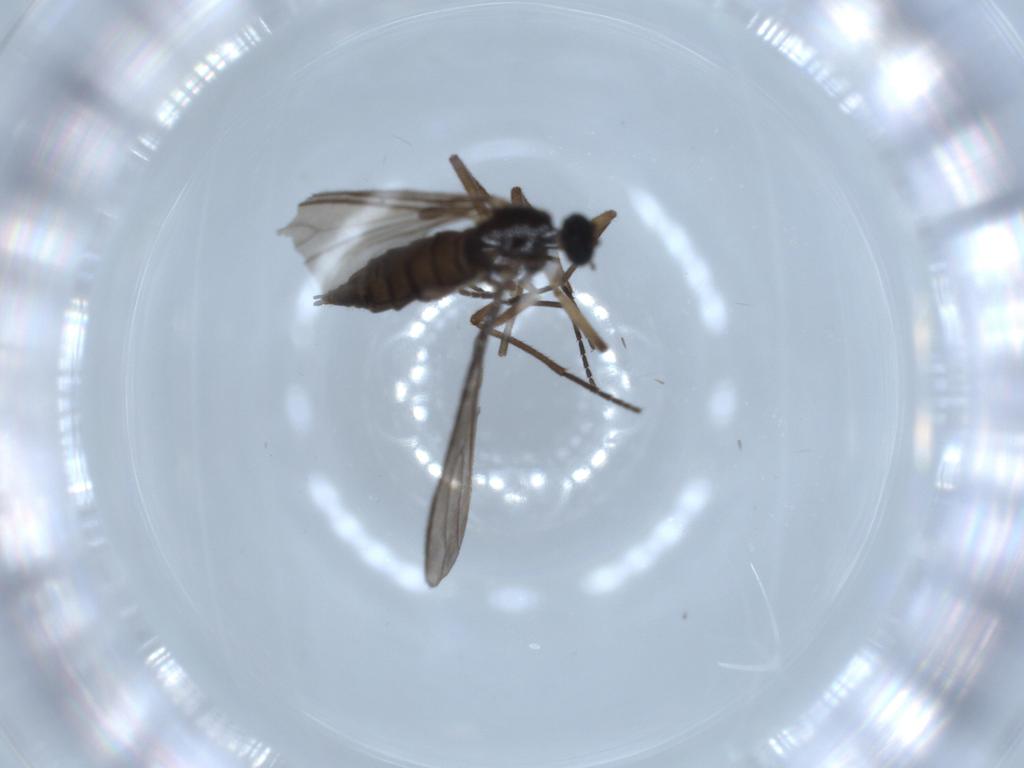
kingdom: Animalia
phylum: Arthropoda
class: Insecta
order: Diptera
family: Sciaridae
